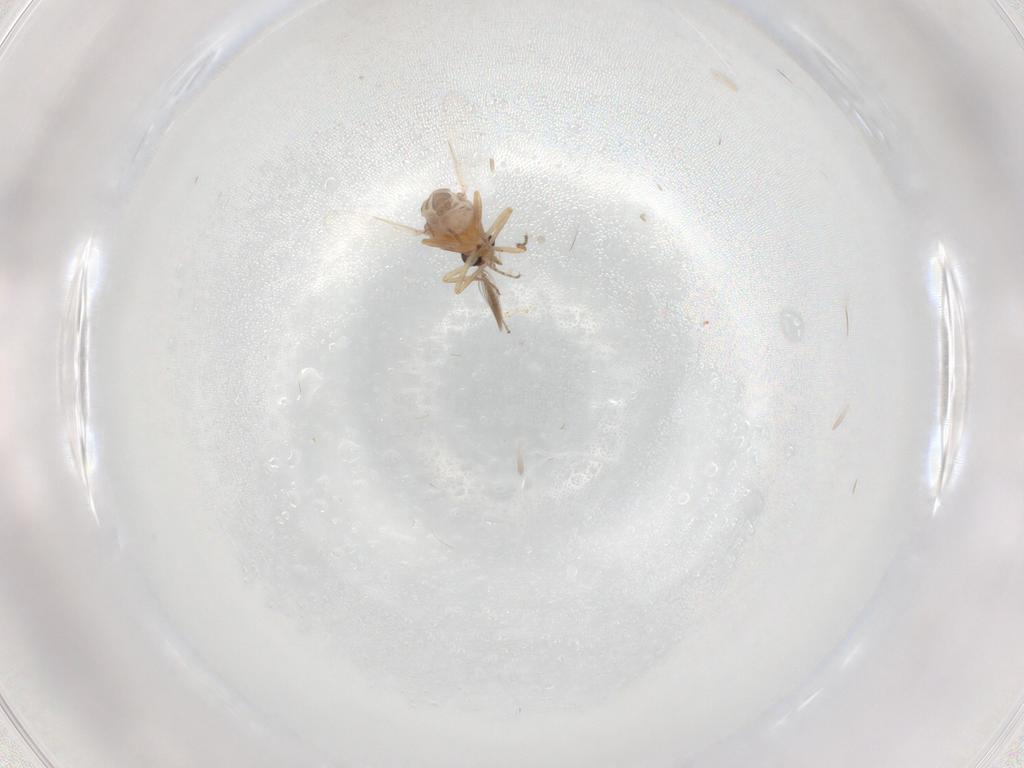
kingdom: Animalia
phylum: Arthropoda
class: Insecta
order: Diptera
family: Ceratopogonidae
